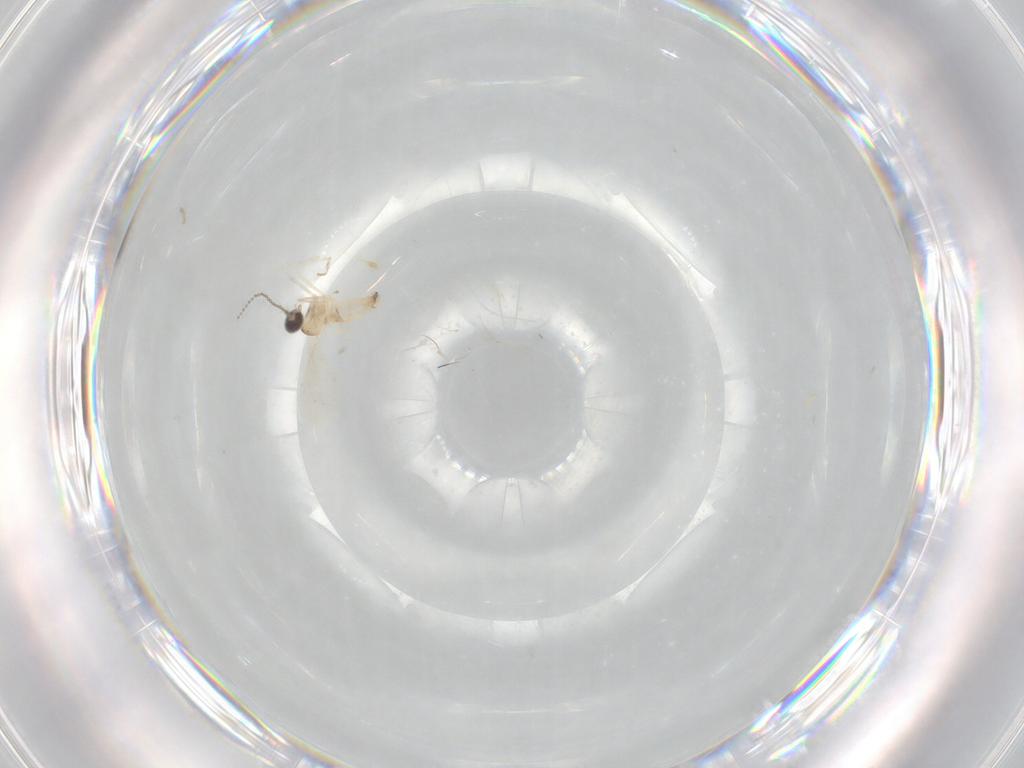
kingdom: Animalia
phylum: Arthropoda
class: Insecta
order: Diptera
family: Cecidomyiidae
